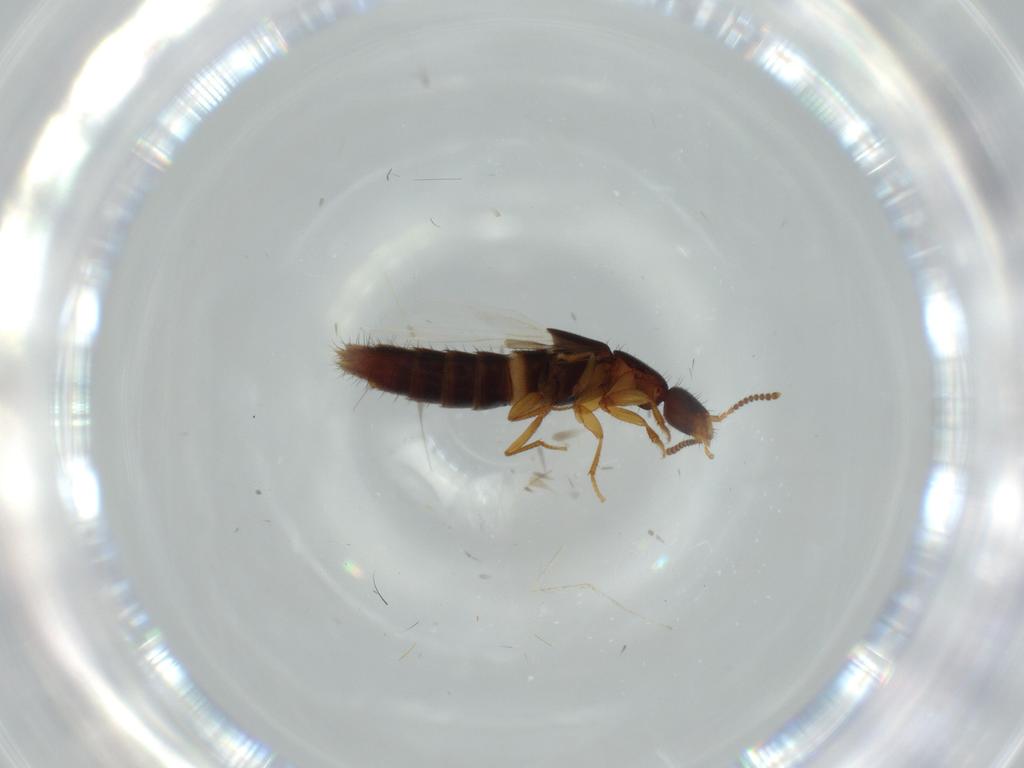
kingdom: Animalia
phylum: Arthropoda
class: Insecta
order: Coleoptera
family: Staphylinidae
